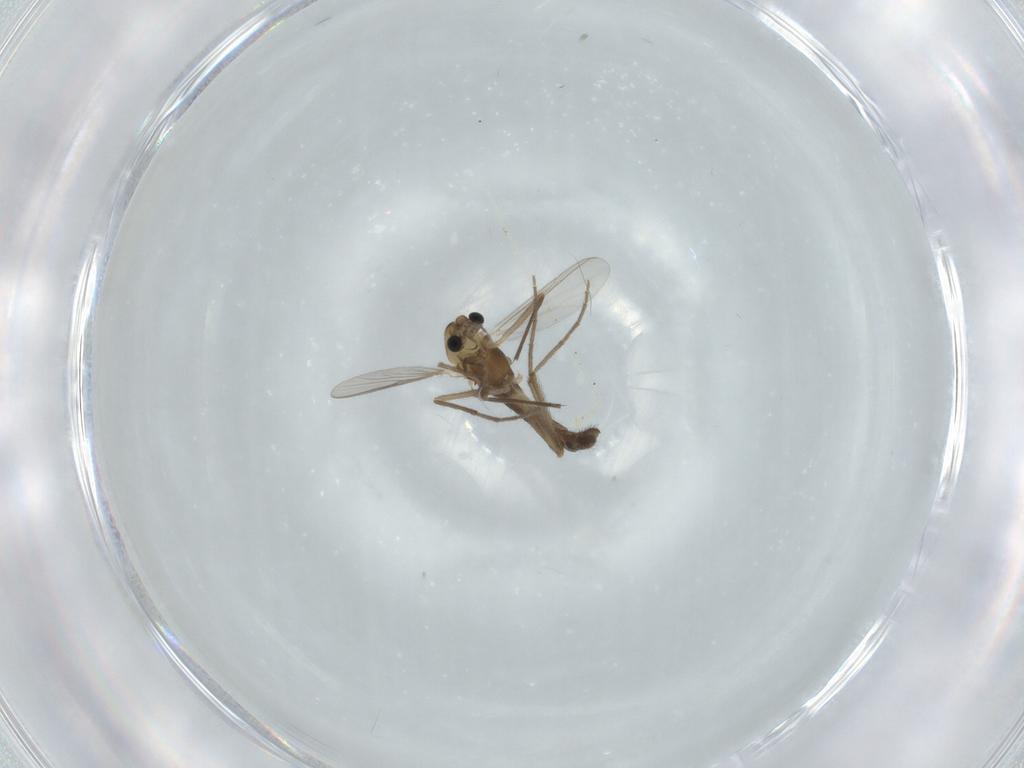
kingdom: Animalia
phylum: Arthropoda
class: Insecta
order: Diptera
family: Chironomidae
